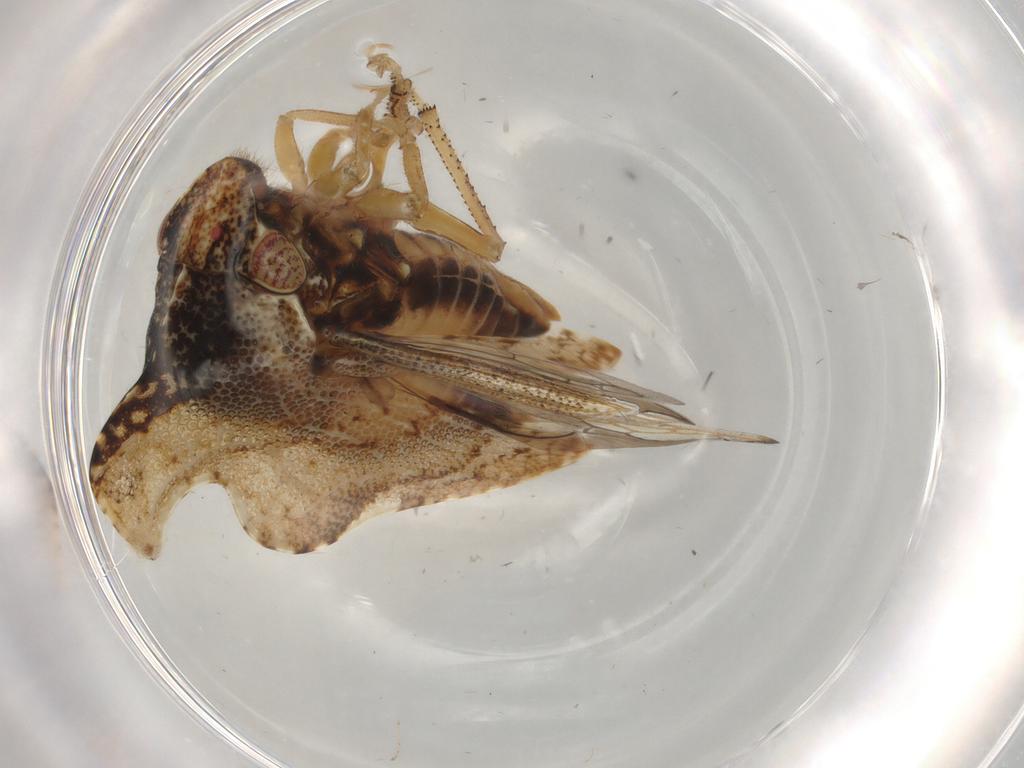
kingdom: Animalia
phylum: Arthropoda
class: Insecta
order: Hemiptera
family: Membracidae
